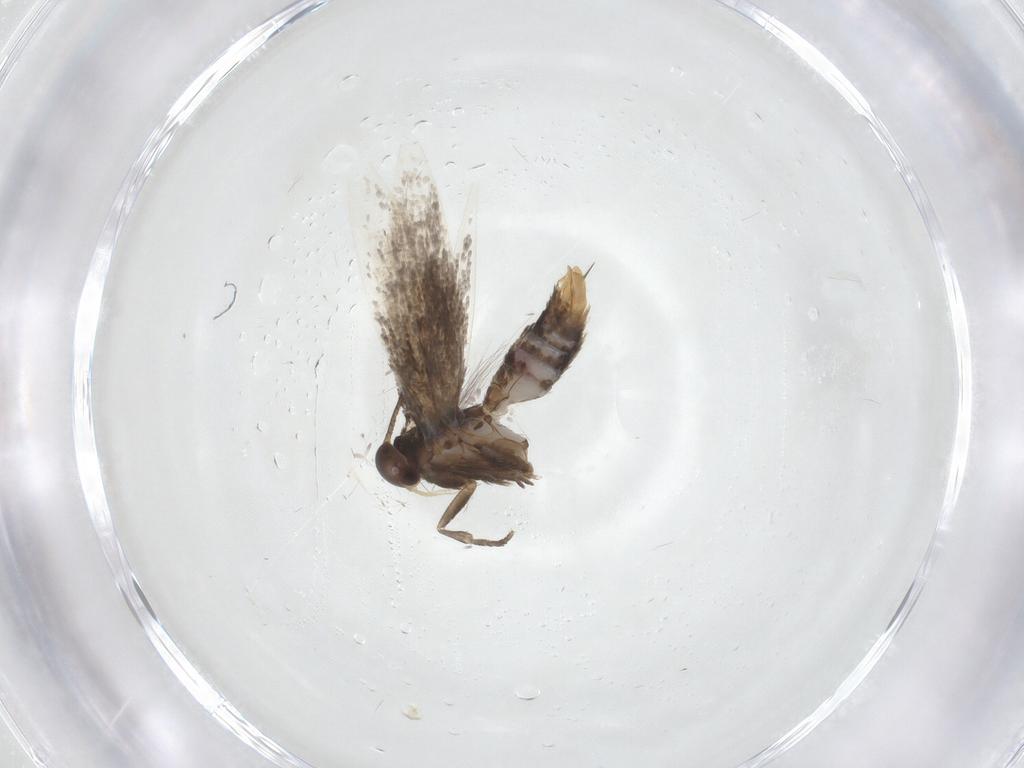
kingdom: Animalia
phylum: Arthropoda
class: Insecta
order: Lepidoptera
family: Elachistidae
